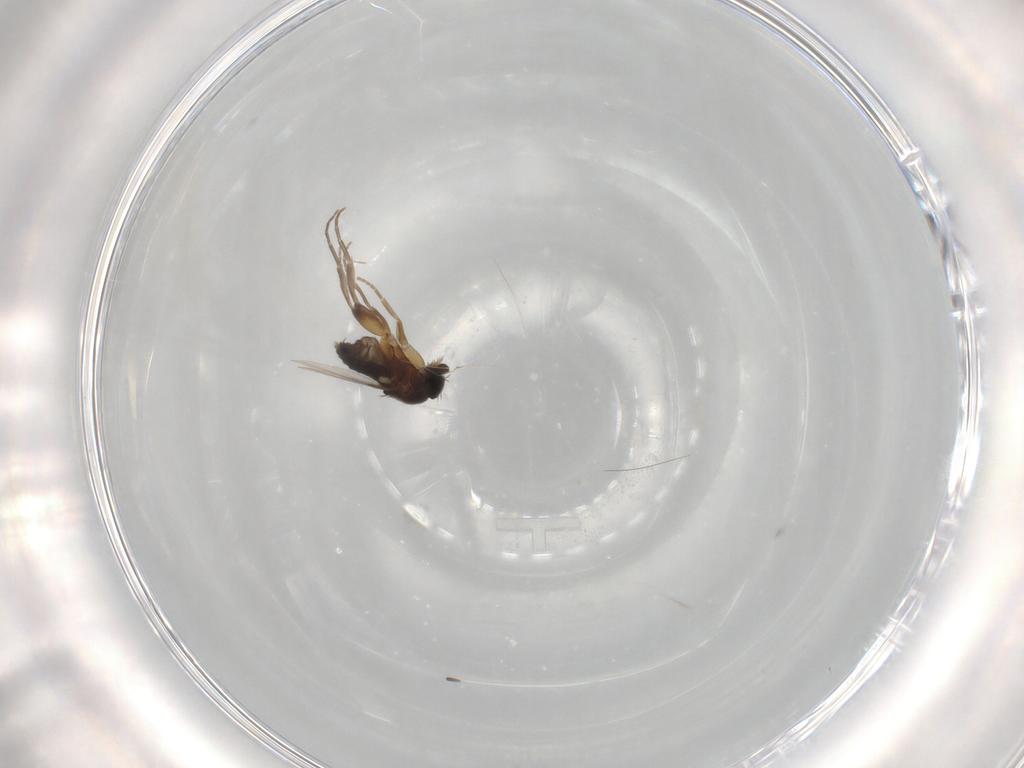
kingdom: Animalia
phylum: Arthropoda
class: Insecta
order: Diptera
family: Phoridae
